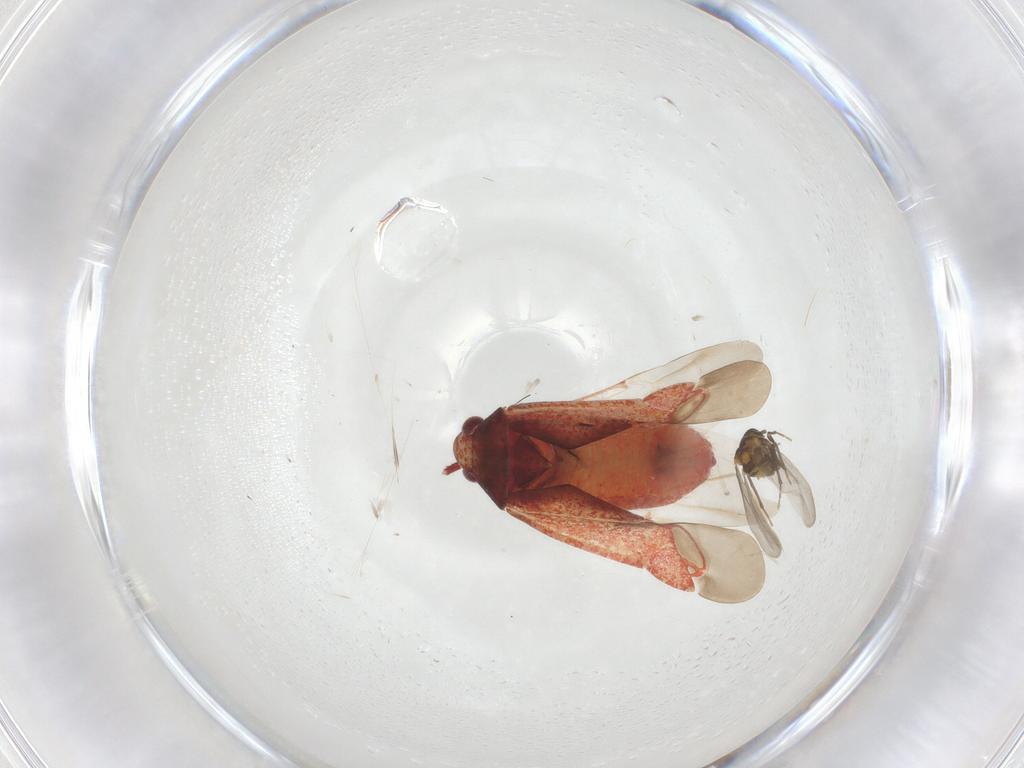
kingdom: Animalia
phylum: Arthropoda
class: Insecta
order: Hemiptera
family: Miridae
